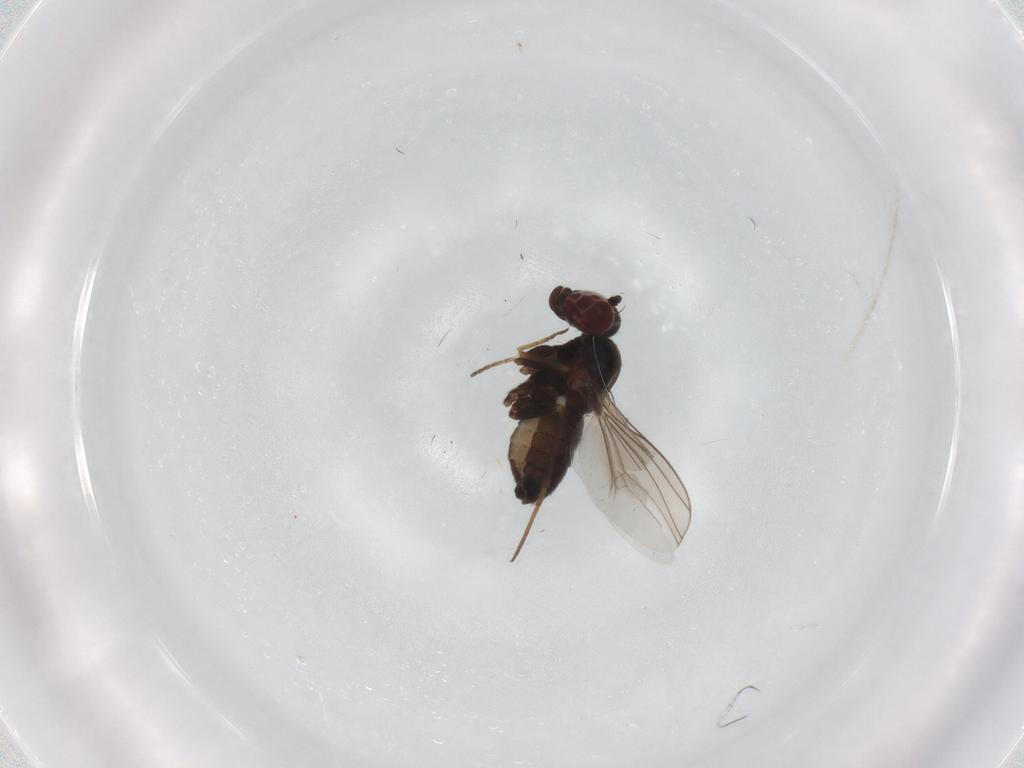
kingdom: Animalia
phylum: Arthropoda
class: Insecta
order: Diptera
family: Dolichopodidae
